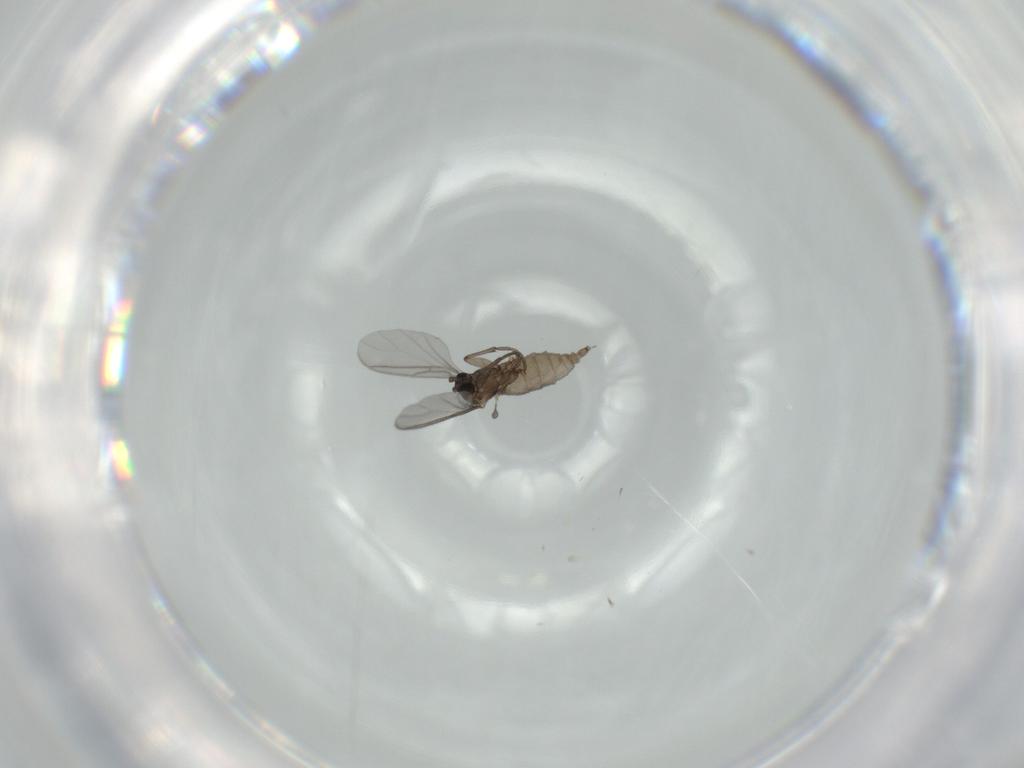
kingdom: Animalia
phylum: Arthropoda
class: Insecta
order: Diptera
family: Sciaridae
